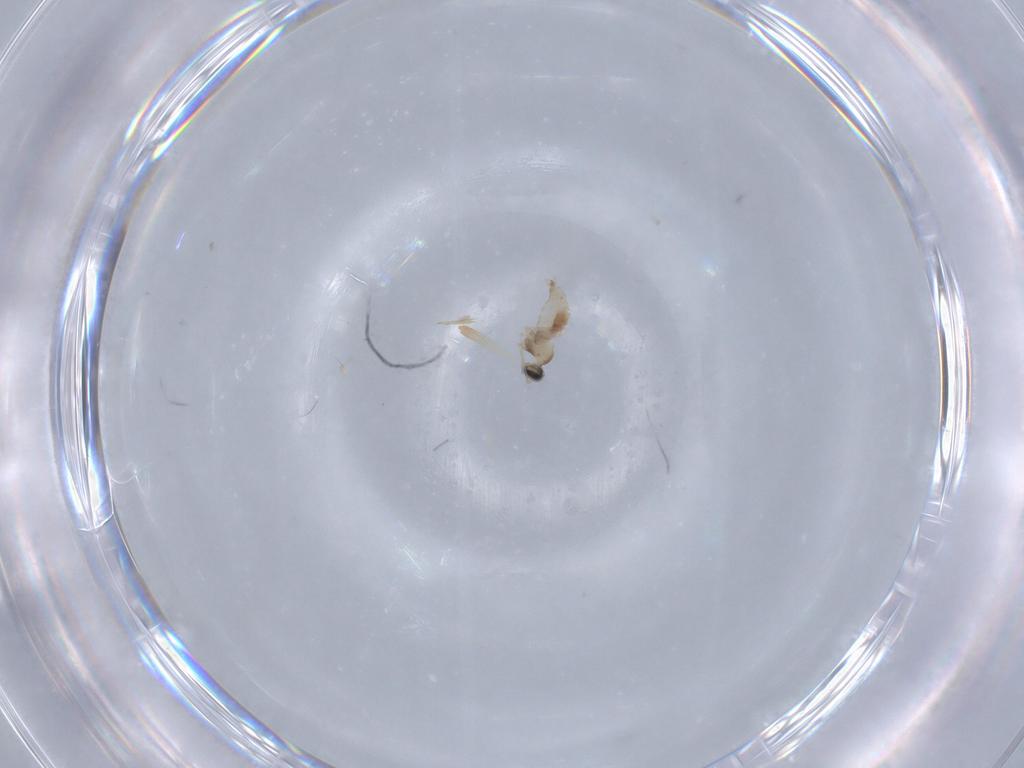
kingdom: Animalia
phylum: Arthropoda
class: Insecta
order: Diptera
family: Cecidomyiidae
